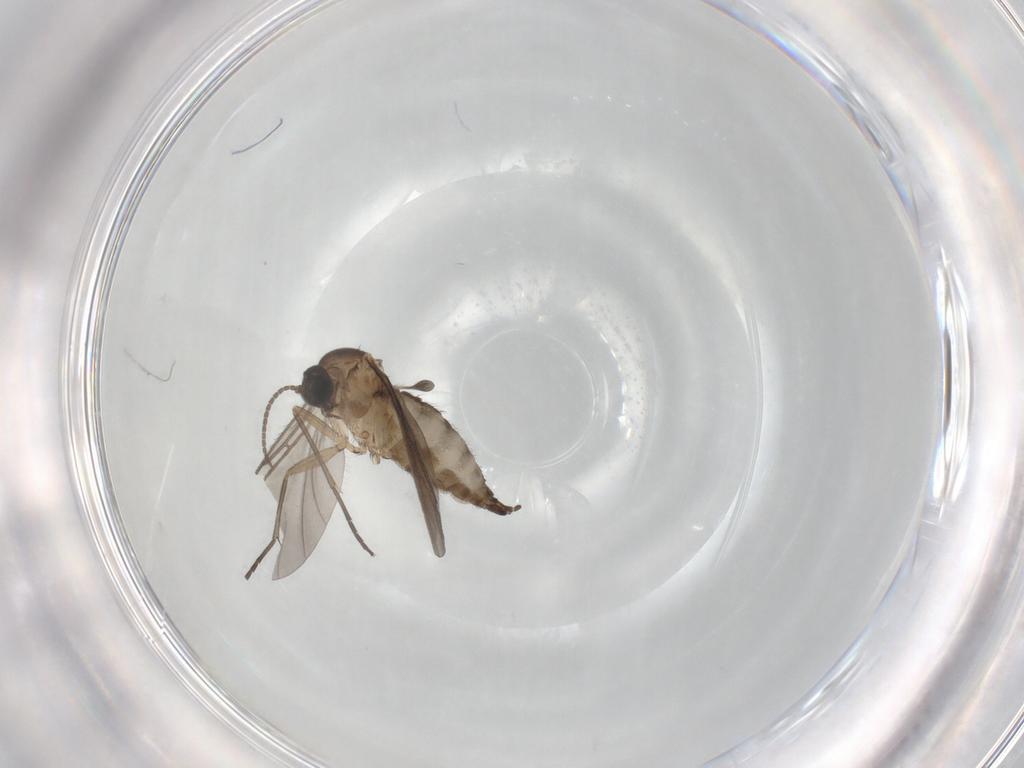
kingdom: Animalia
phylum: Arthropoda
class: Insecta
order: Diptera
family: Sciaridae
